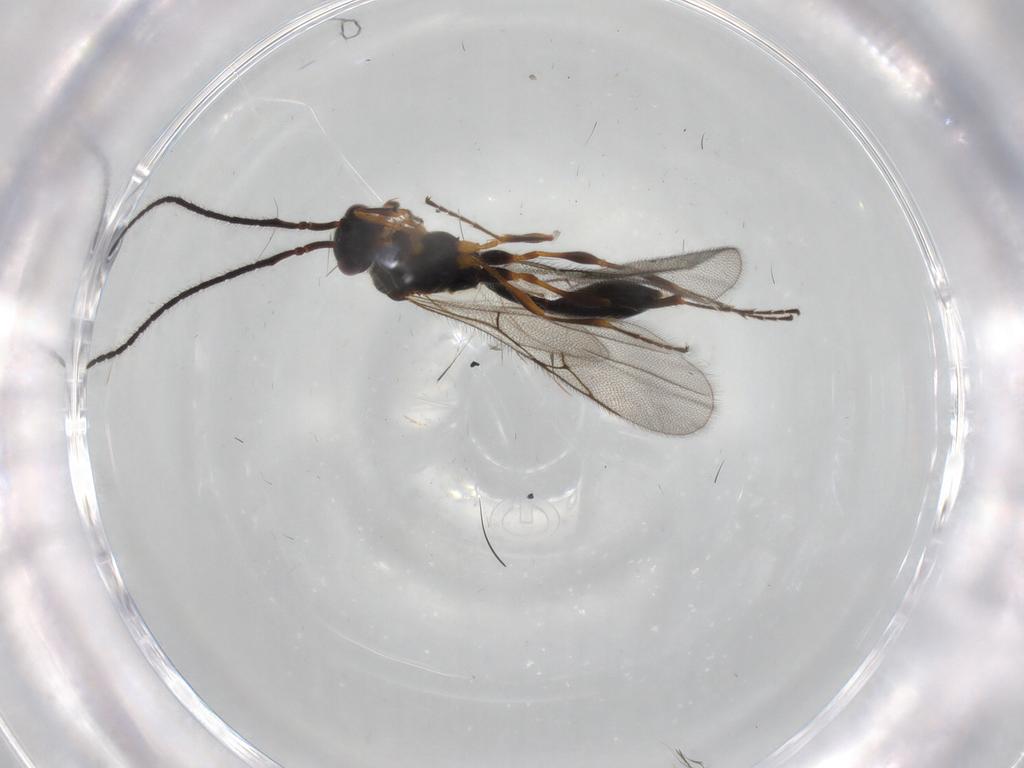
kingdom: Animalia
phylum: Arthropoda
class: Insecta
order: Hymenoptera
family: Diapriidae
